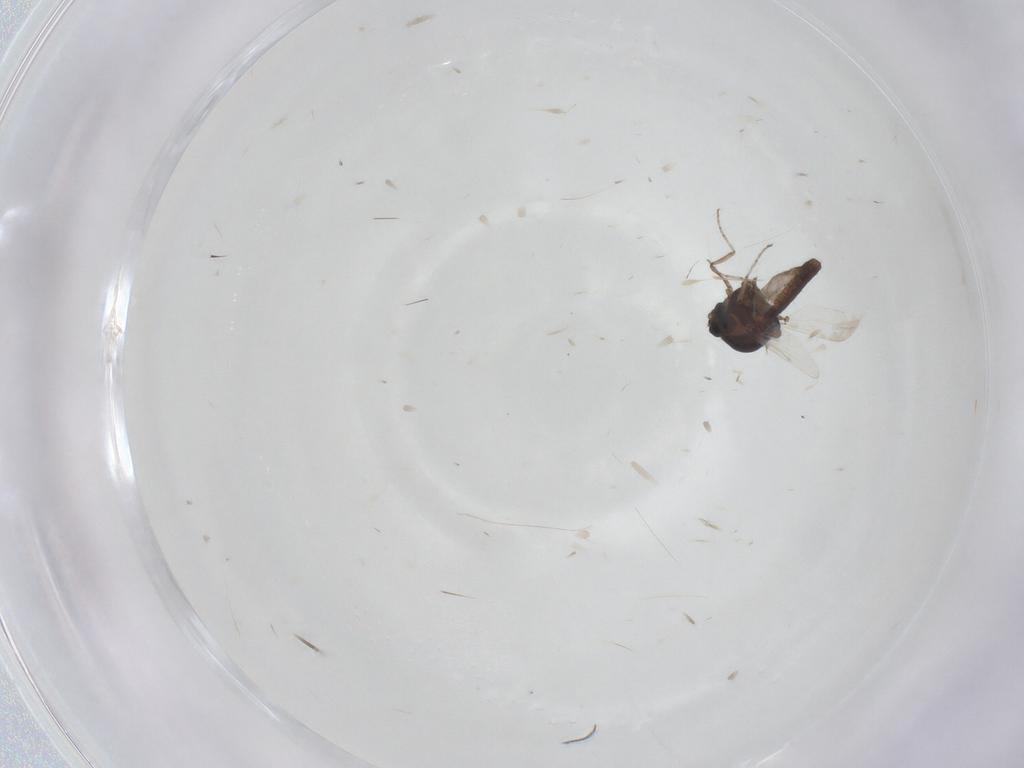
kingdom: Animalia
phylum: Arthropoda
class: Insecta
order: Diptera
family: Ceratopogonidae
